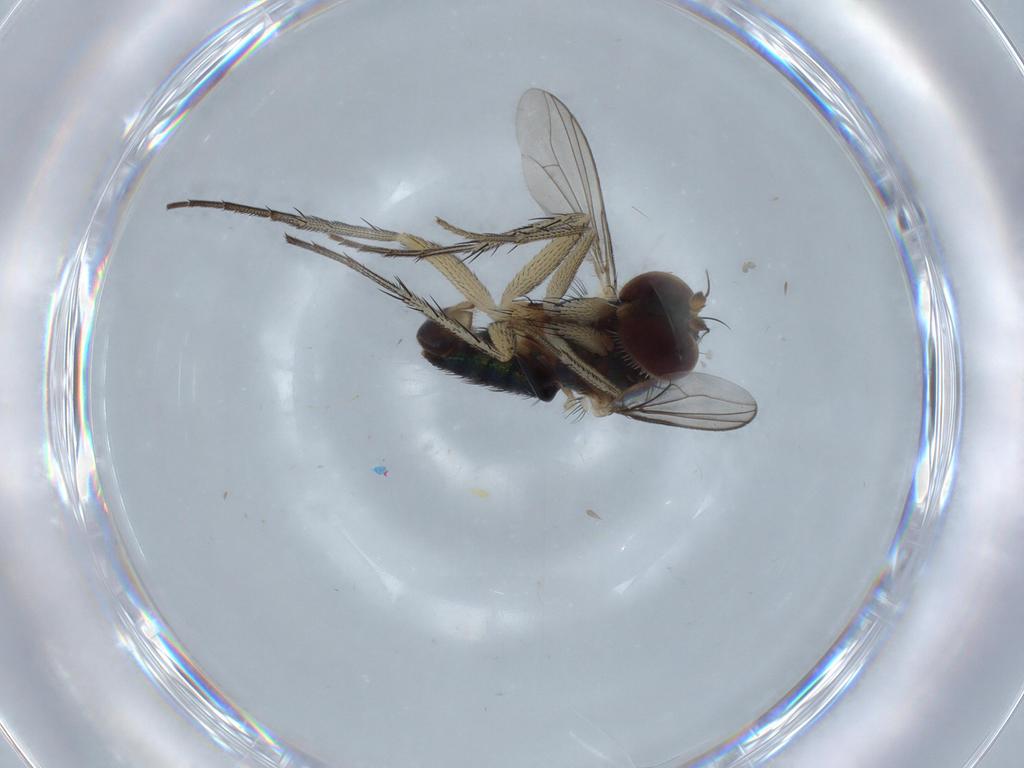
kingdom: Animalia
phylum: Arthropoda
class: Insecta
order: Diptera
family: Dolichopodidae
